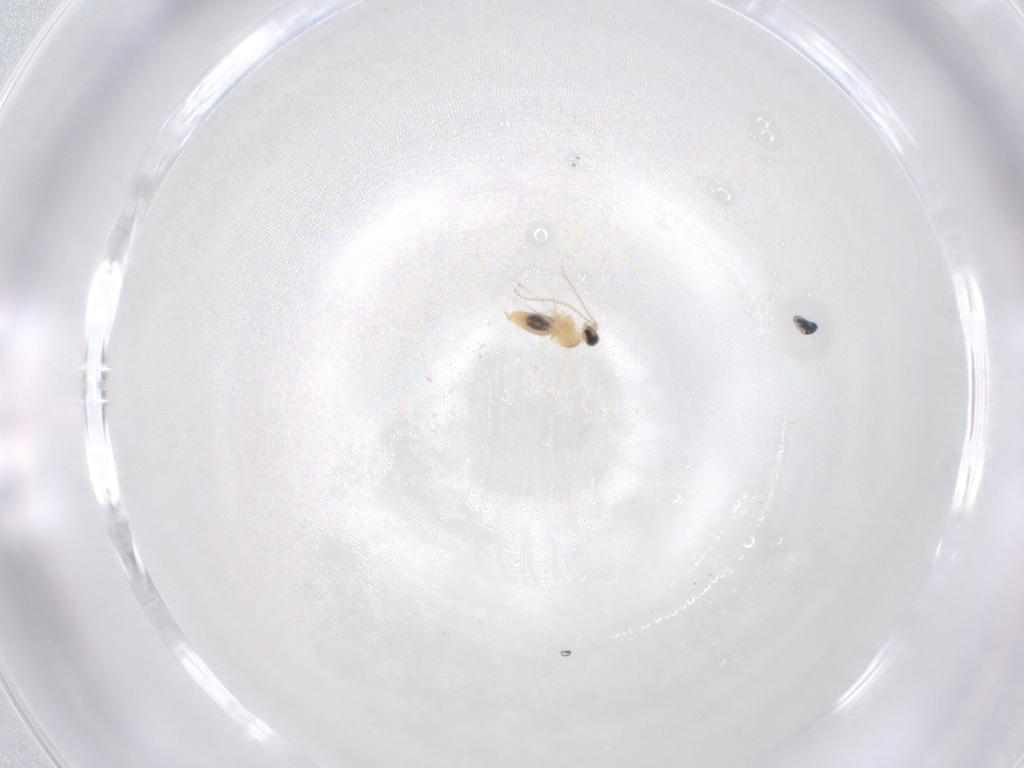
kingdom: Animalia
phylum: Arthropoda
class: Insecta
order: Diptera
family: Cecidomyiidae
